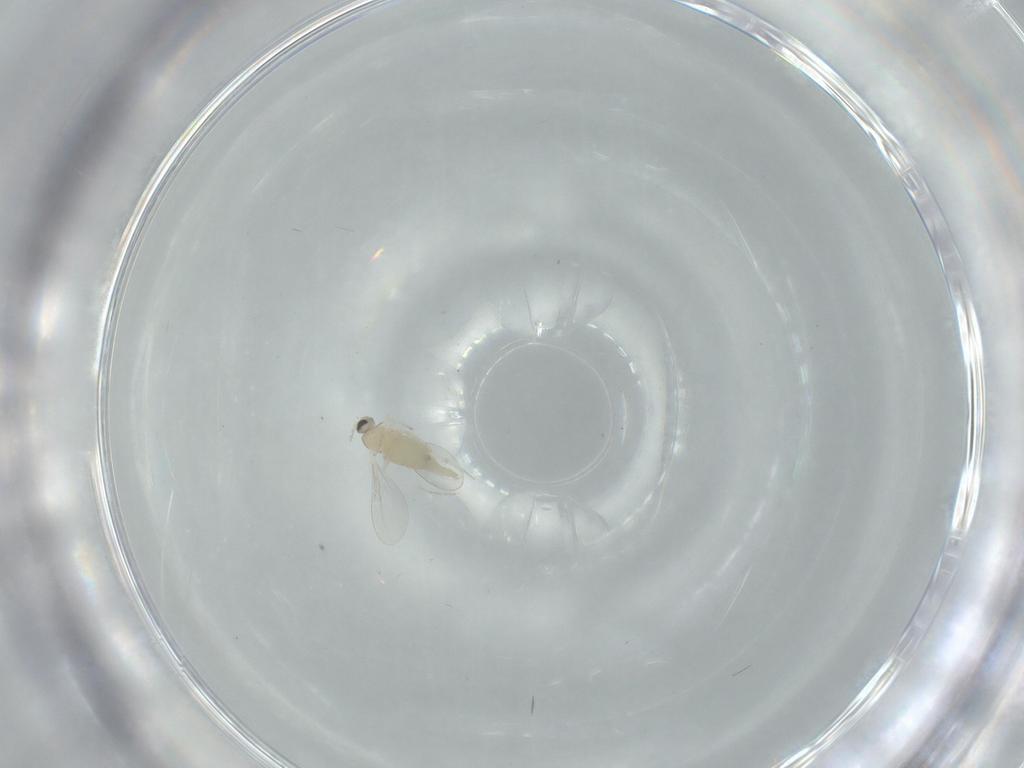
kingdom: Animalia
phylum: Arthropoda
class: Insecta
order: Diptera
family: Cecidomyiidae
